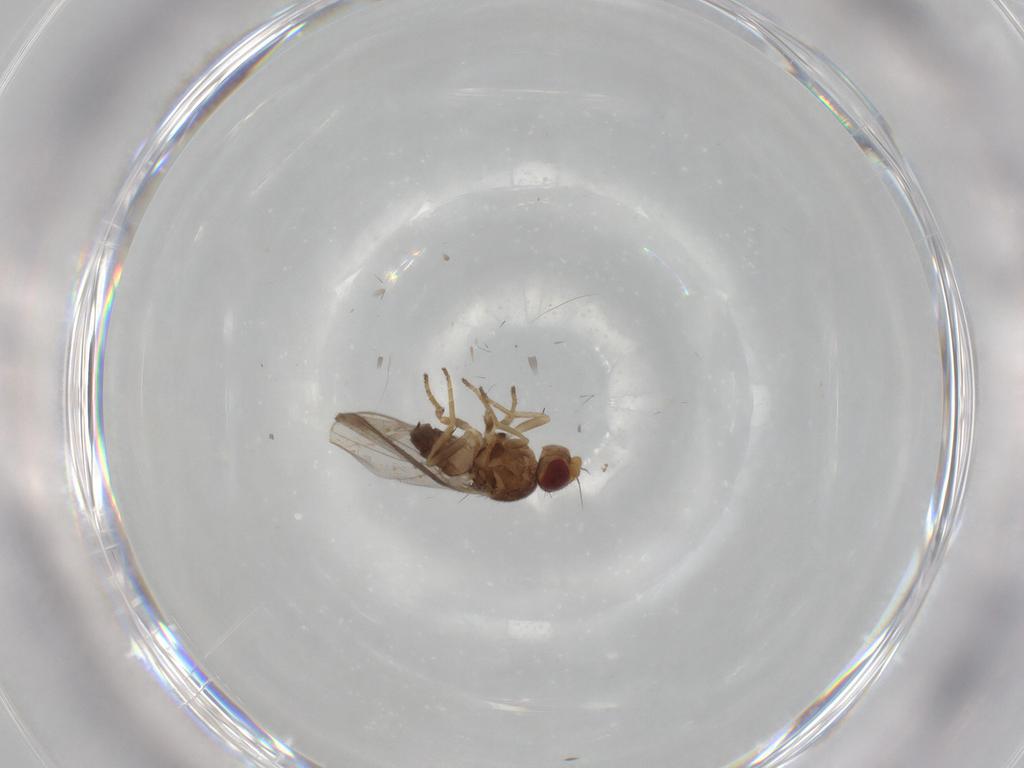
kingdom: Animalia
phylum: Arthropoda
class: Insecta
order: Diptera
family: Chloropidae
